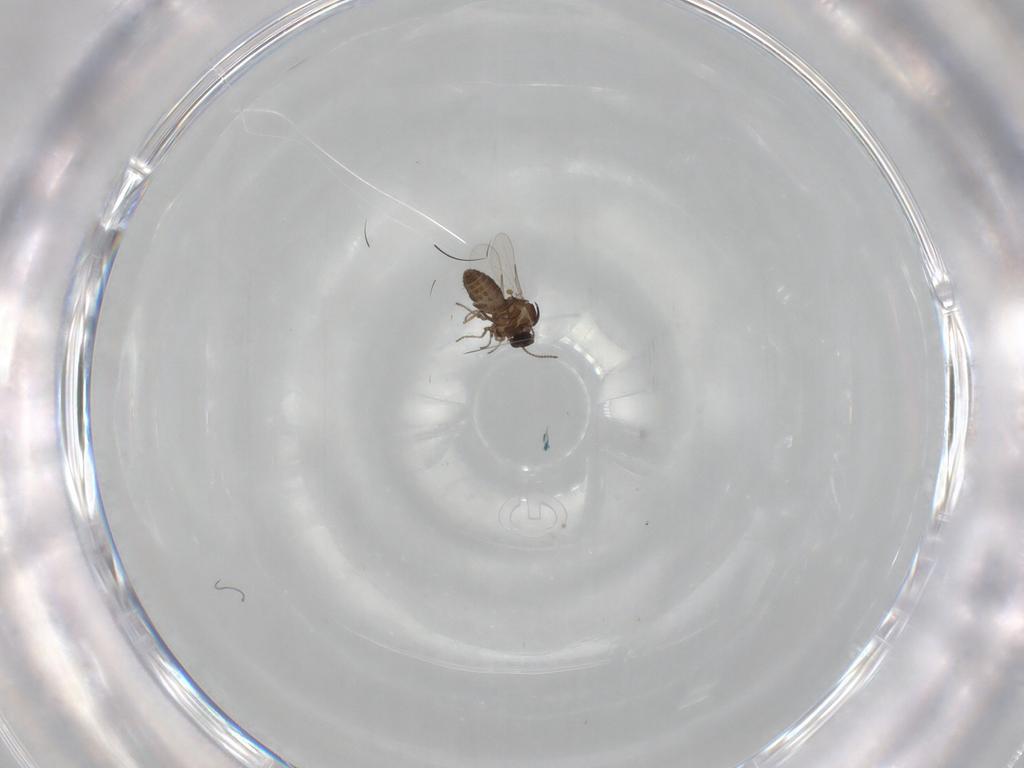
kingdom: Animalia
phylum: Arthropoda
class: Insecta
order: Diptera
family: Ceratopogonidae
